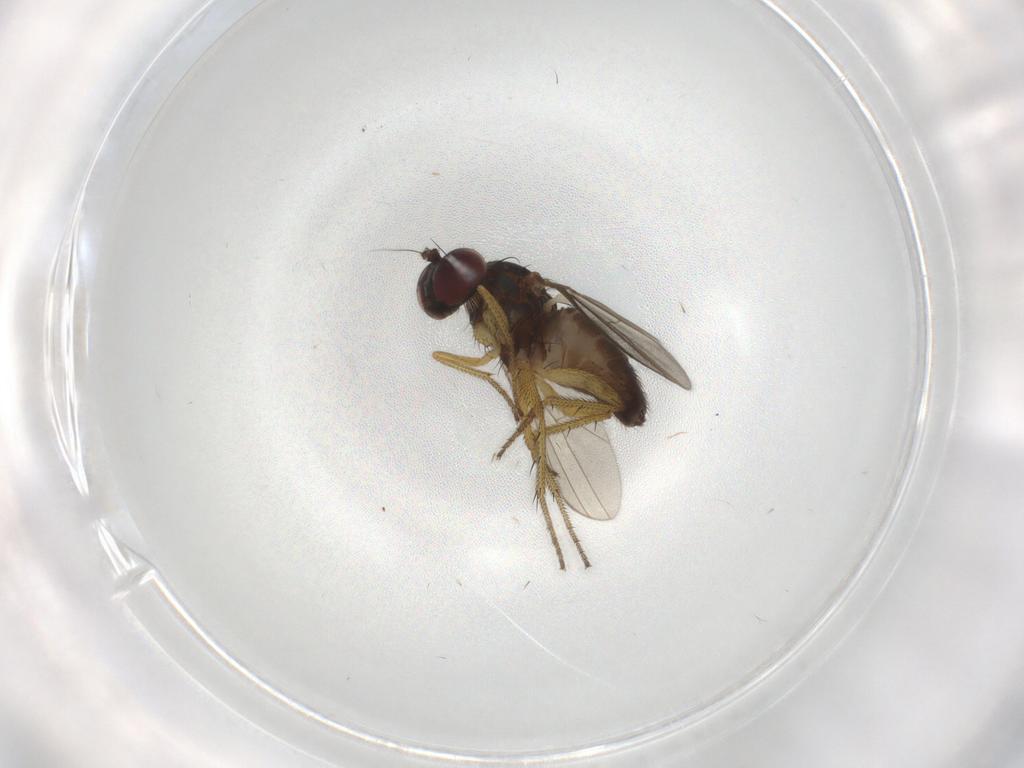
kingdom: Animalia
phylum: Arthropoda
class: Insecta
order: Diptera
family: Dolichopodidae
